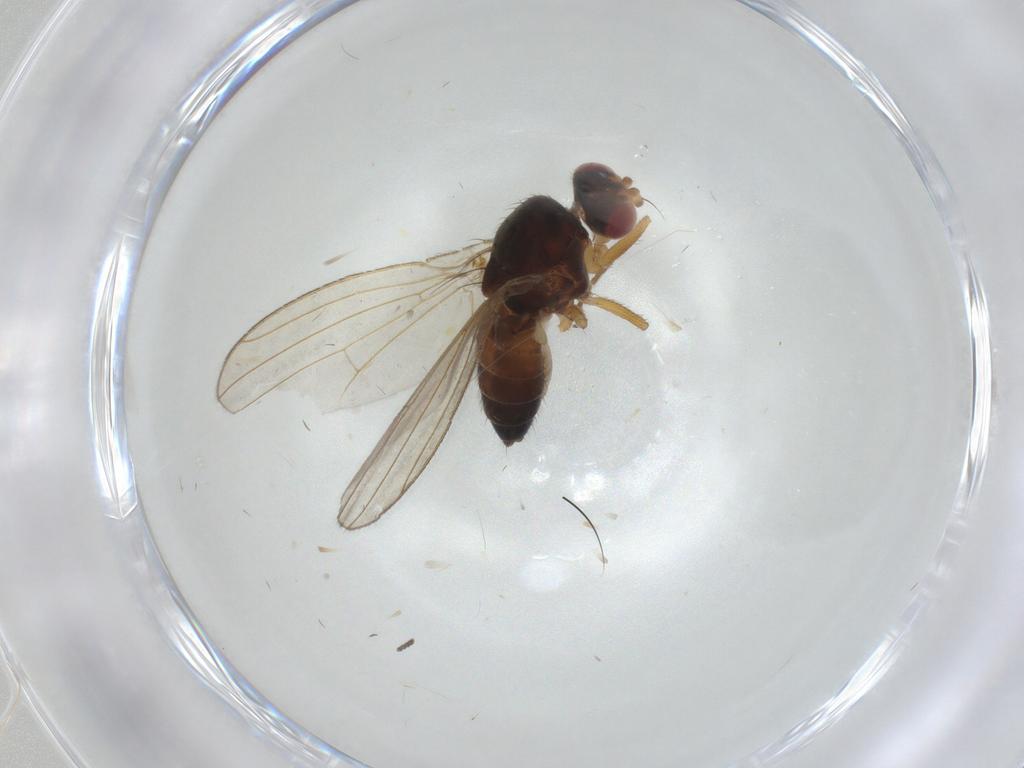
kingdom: Animalia
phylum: Arthropoda
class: Insecta
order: Diptera
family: Drosophilidae
